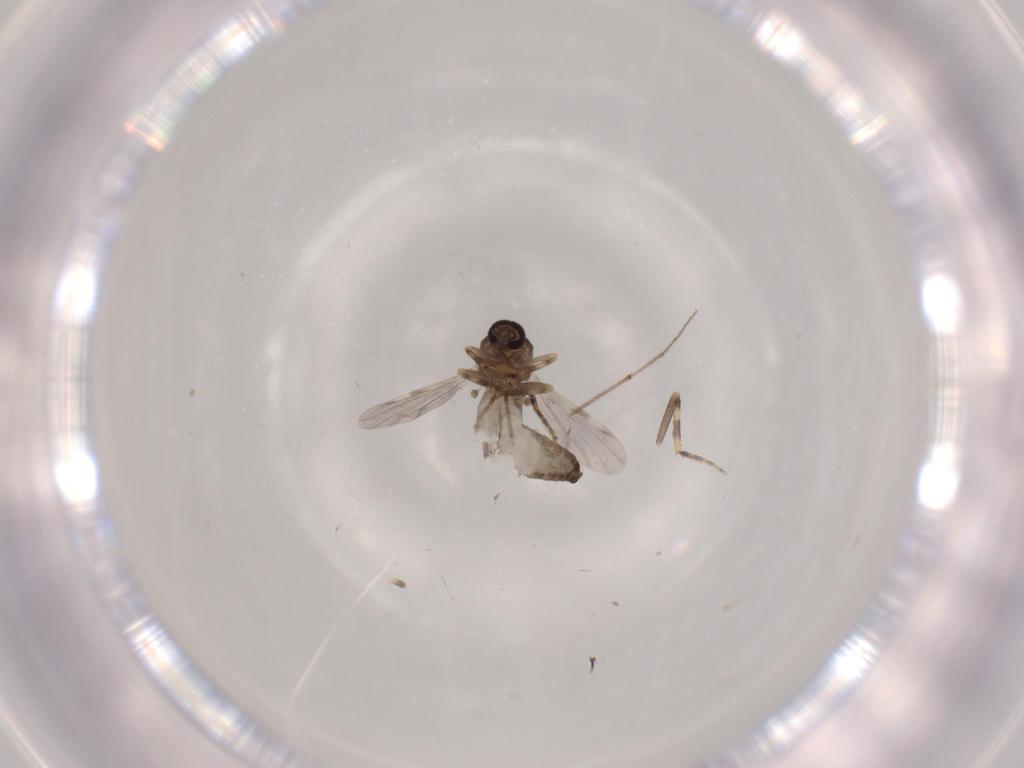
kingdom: Animalia
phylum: Arthropoda
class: Insecta
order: Diptera
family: Ceratopogonidae
